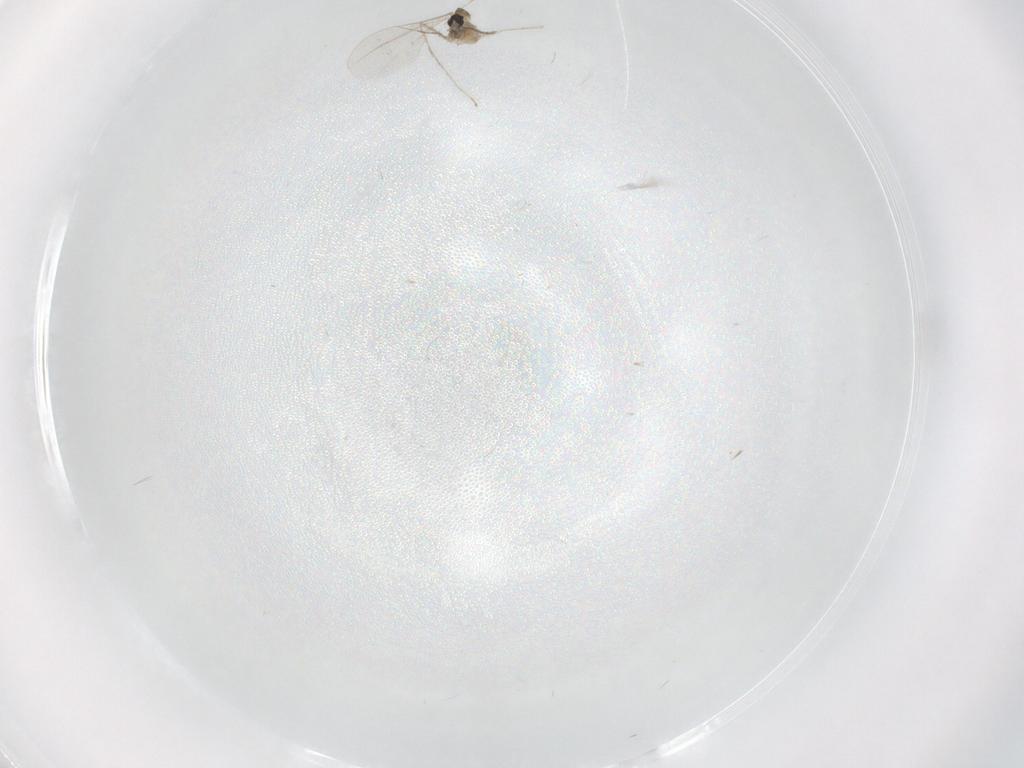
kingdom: Animalia
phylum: Arthropoda
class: Insecta
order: Diptera
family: Cecidomyiidae
